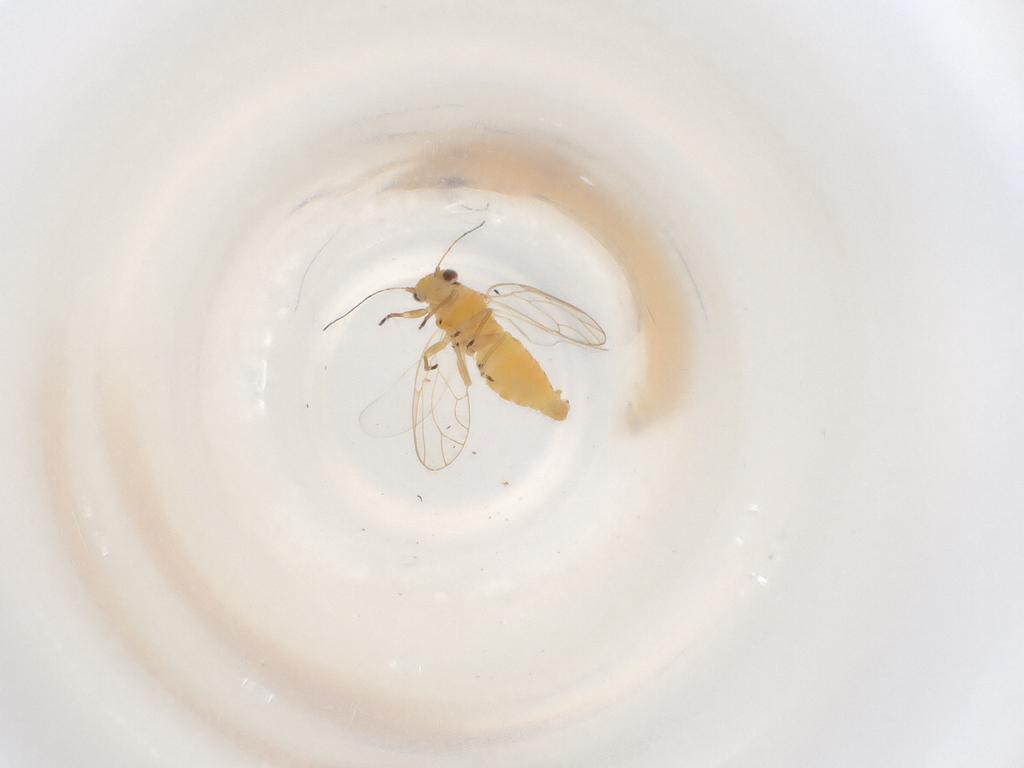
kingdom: Animalia
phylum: Arthropoda
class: Insecta
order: Hemiptera
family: Psyllidae
